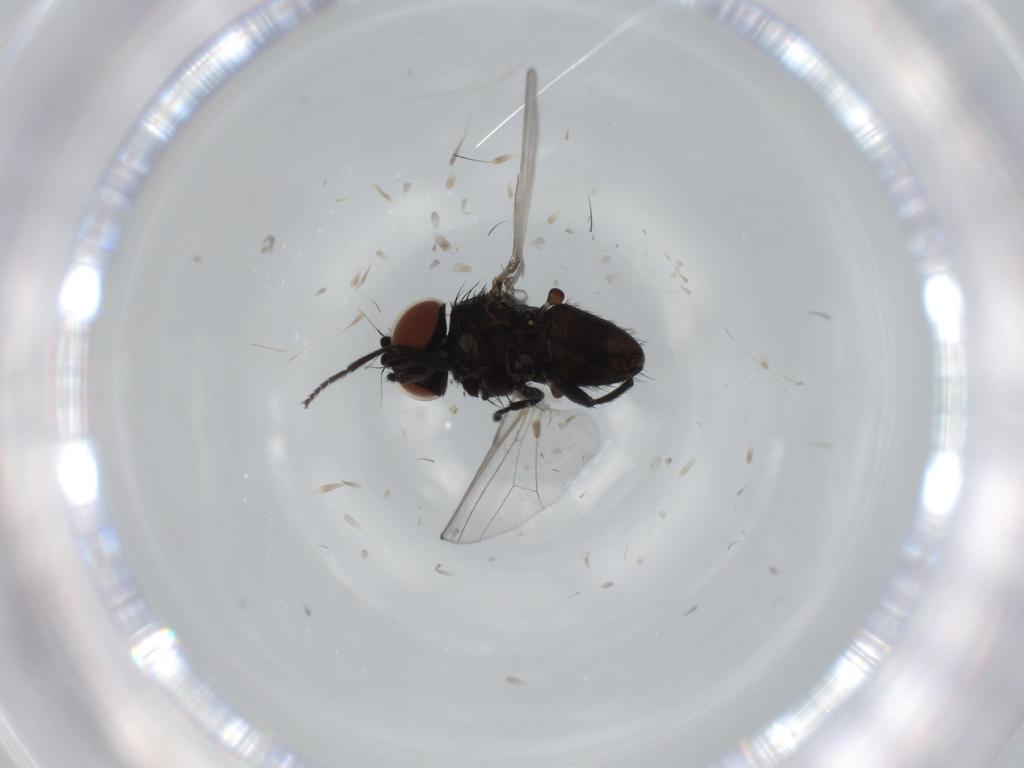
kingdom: Animalia
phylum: Arthropoda
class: Insecta
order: Diptera
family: Milichiidae
